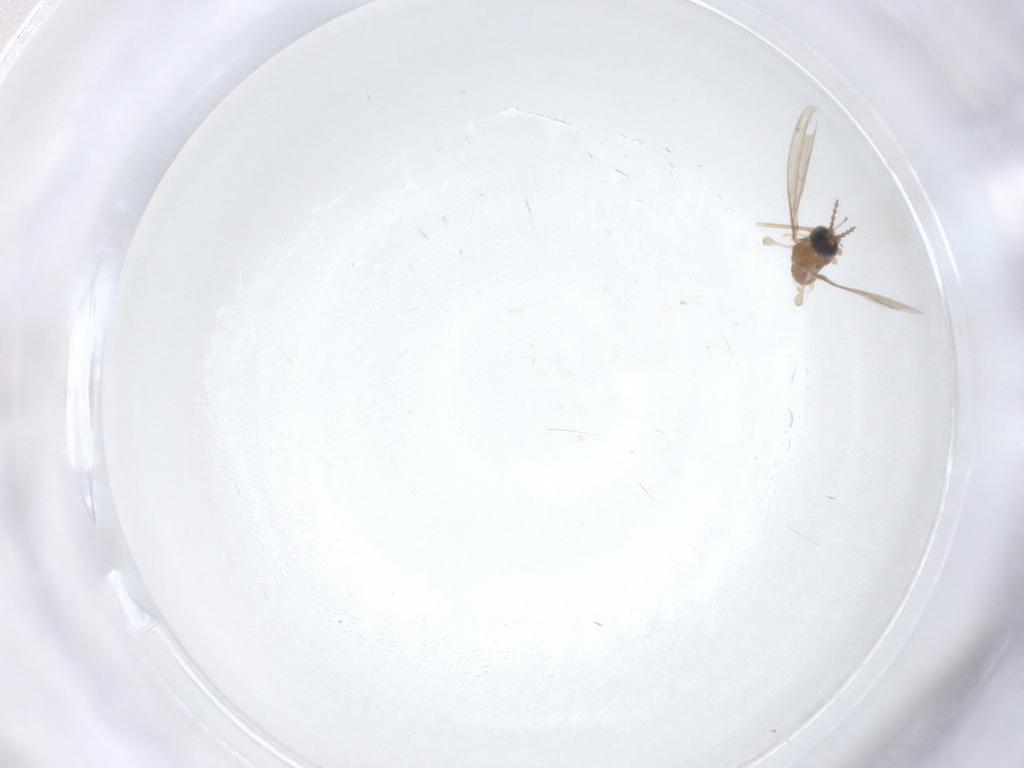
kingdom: Animalia
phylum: Arthropoda
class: Insecta
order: Diptera
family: Chironomidae
